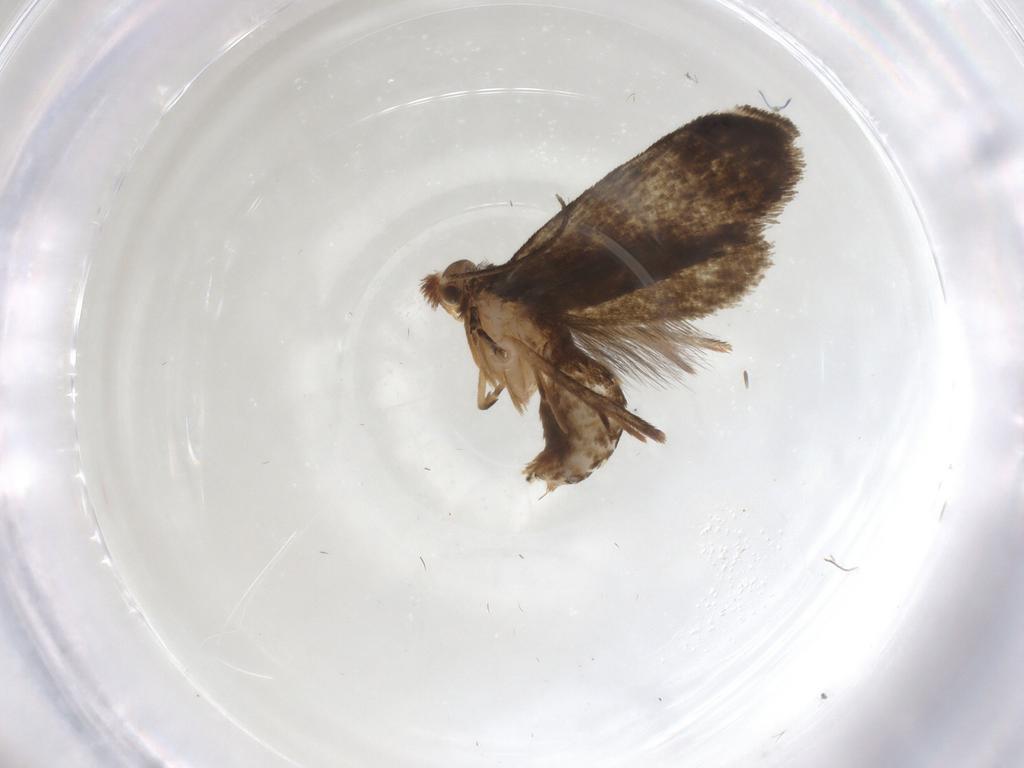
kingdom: Animalia
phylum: Arthropoda
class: Insecta
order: Lepidoptera
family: Crambidae
